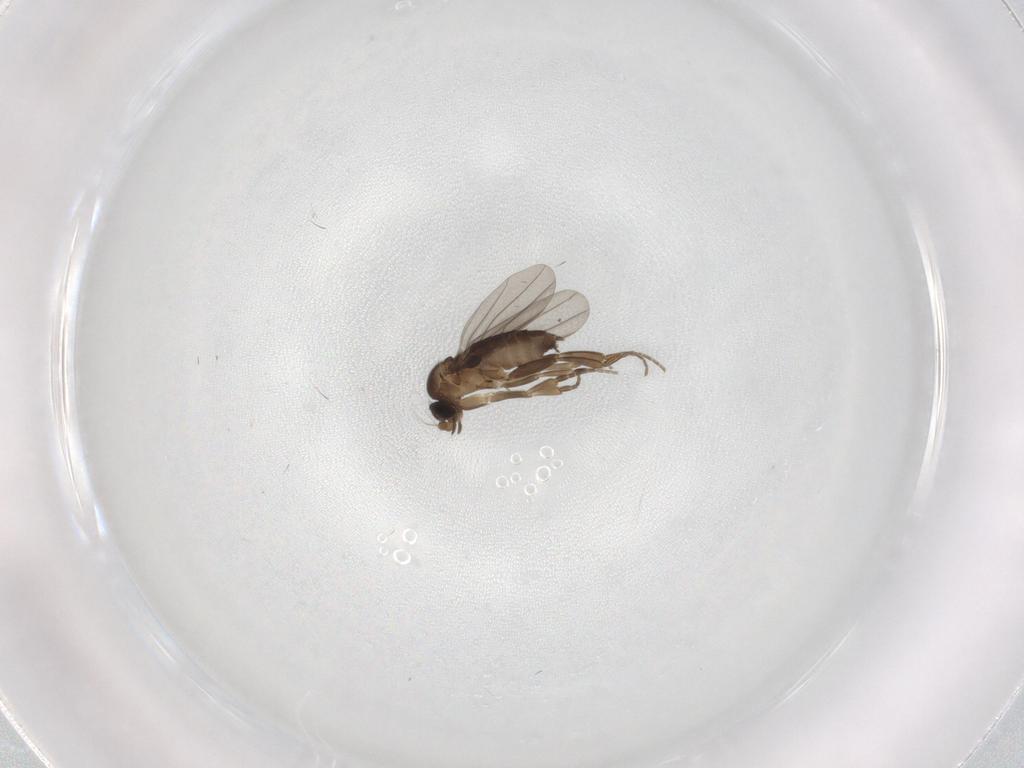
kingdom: Animalia
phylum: Arthropoda
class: Insecta
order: Diptera
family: Phoridae
